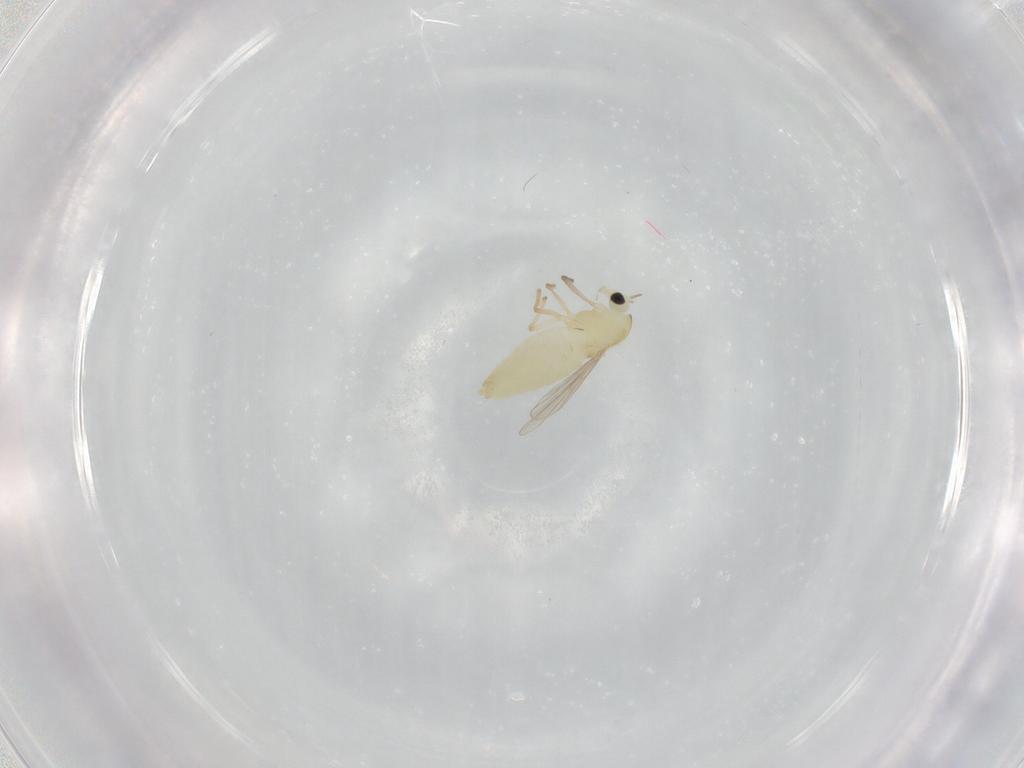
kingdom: Animalia
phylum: Arthropoda
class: Insecta
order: Diptera
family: Chironomidae
